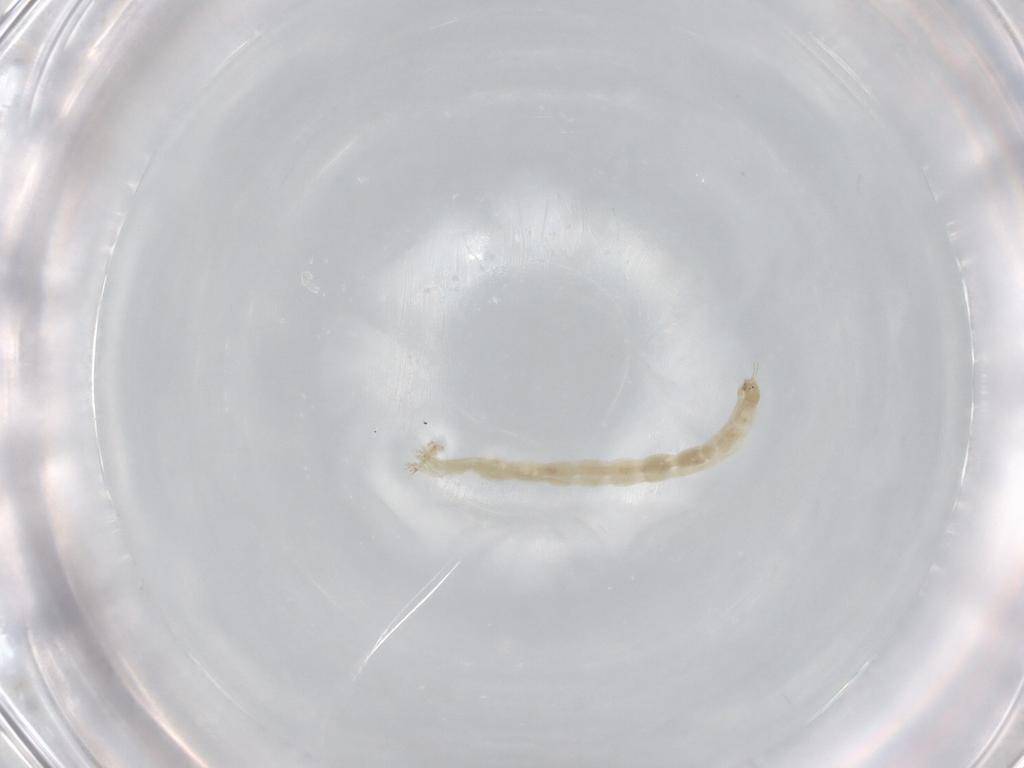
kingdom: Animalia
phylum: Arthropoda
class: Insecta
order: Diptera
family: Chironomidae
